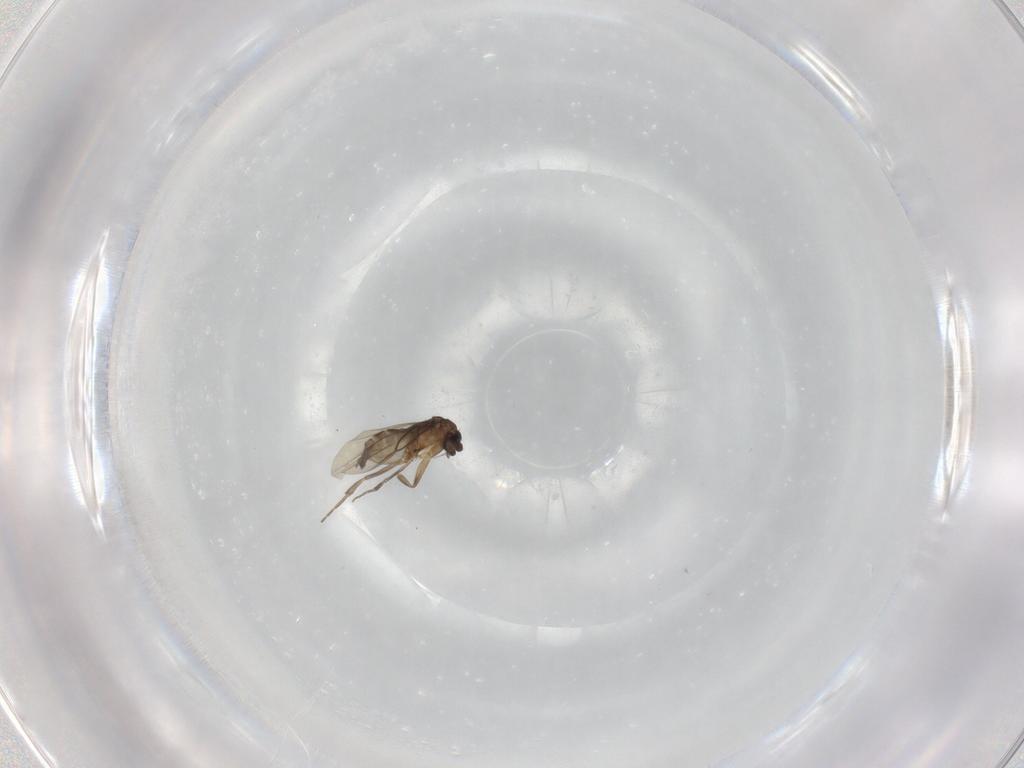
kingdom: Animalia
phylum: Arthropoda
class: Insecta
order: Diptera
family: Phoridae
